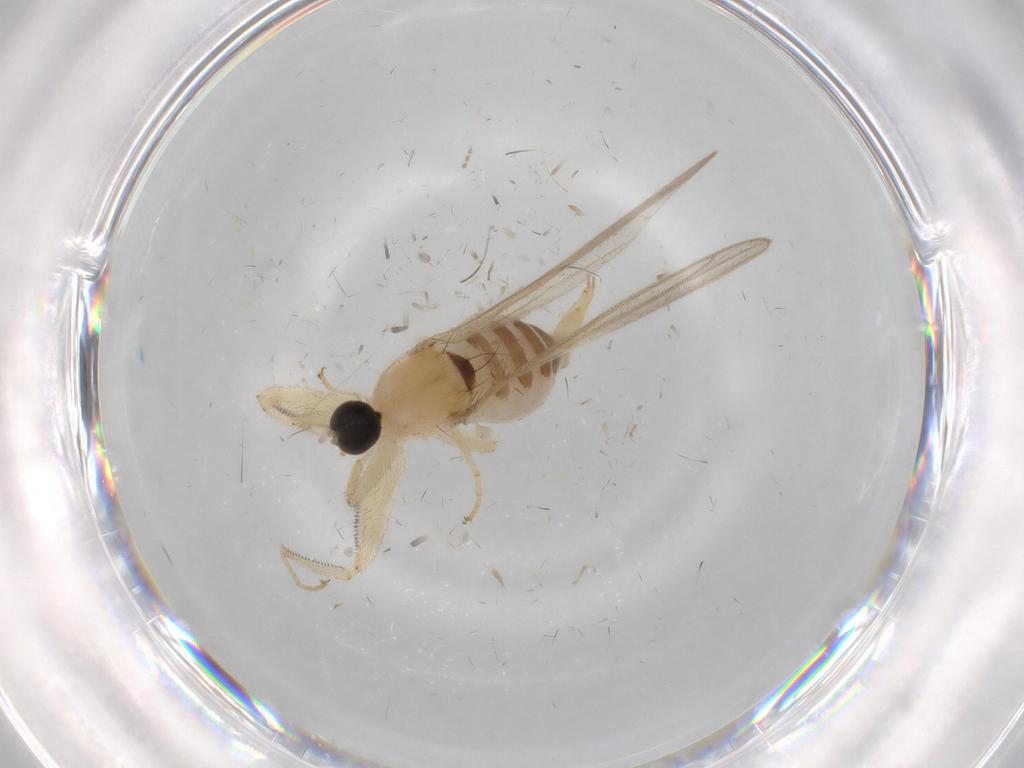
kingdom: Animalia
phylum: Arthropoda
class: Insecta
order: Diptera
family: Hybotidae
